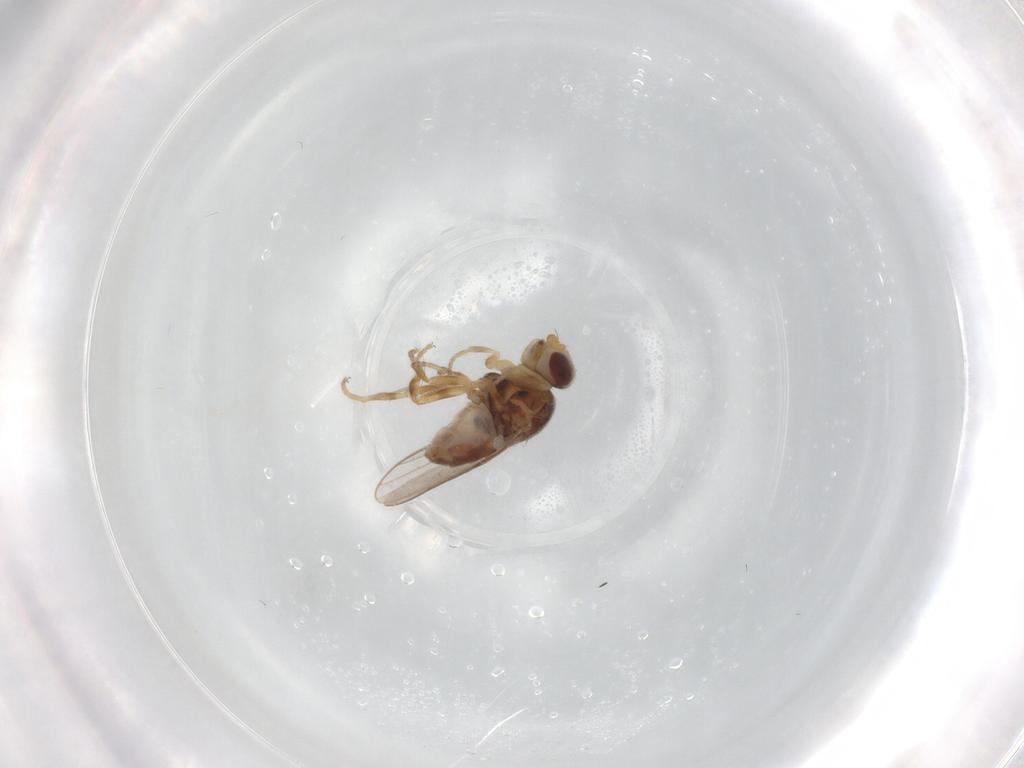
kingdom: Animalia
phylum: Arthropoda
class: Insecta
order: Diptera
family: Chloropidae
